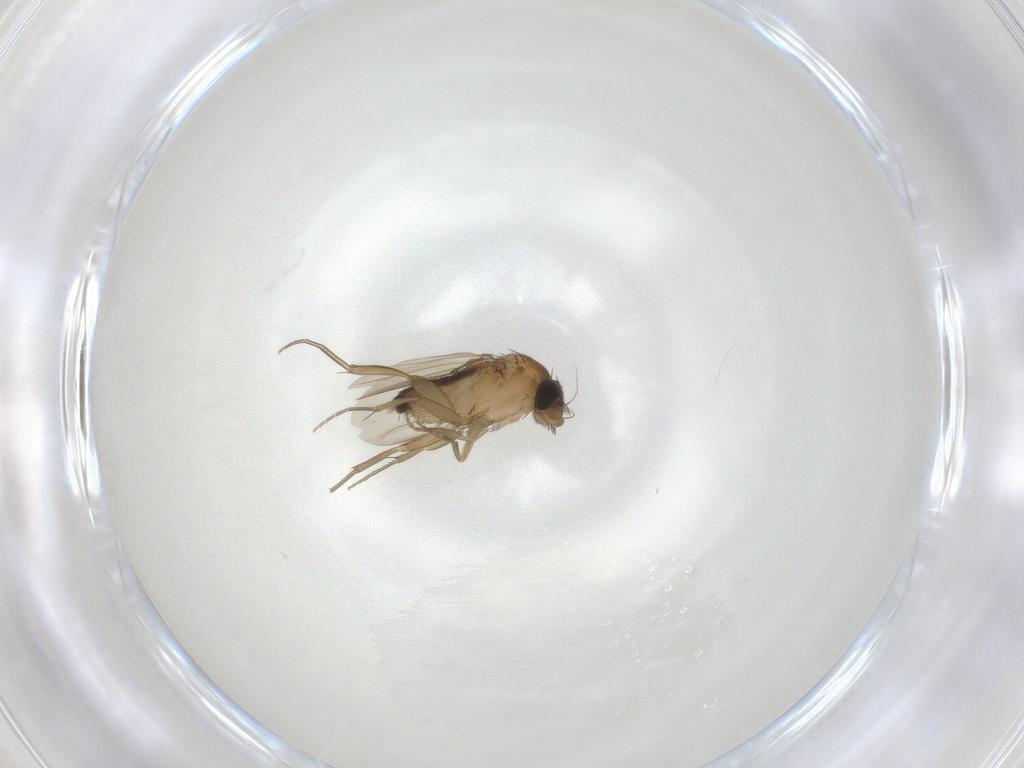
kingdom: Animalia
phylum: Arthropoda
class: Insecta
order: Diptera
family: Phoridae
